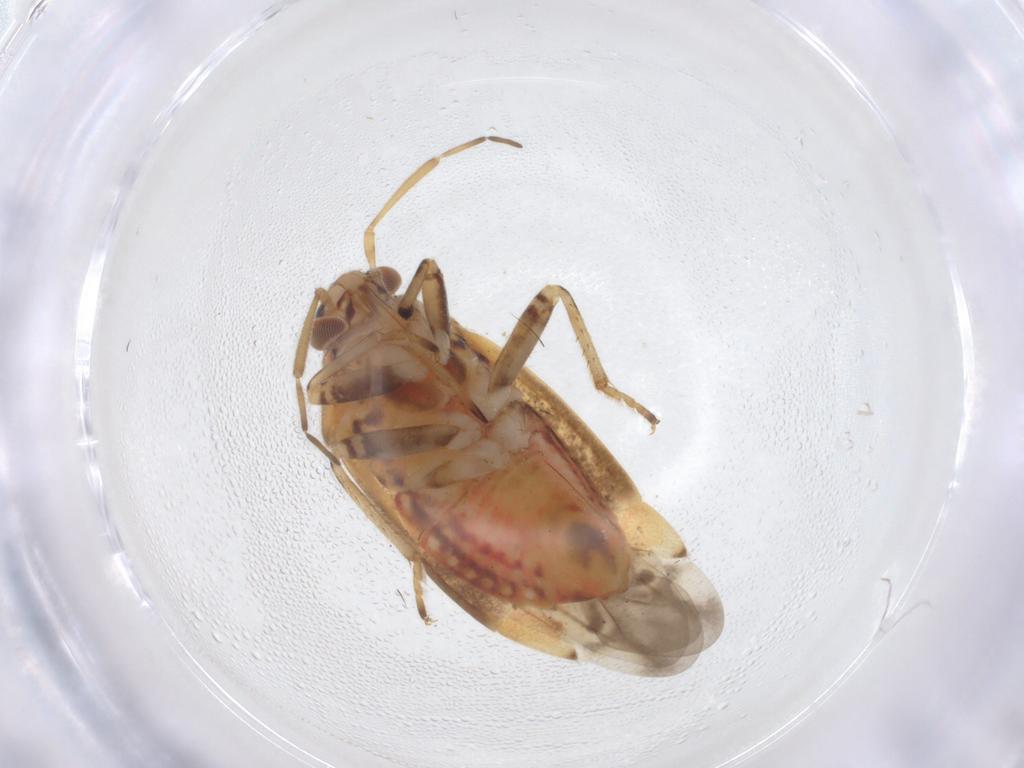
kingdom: Animalia
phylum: Arthropoda
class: Insecta
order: Hemiptera
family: Miridae
